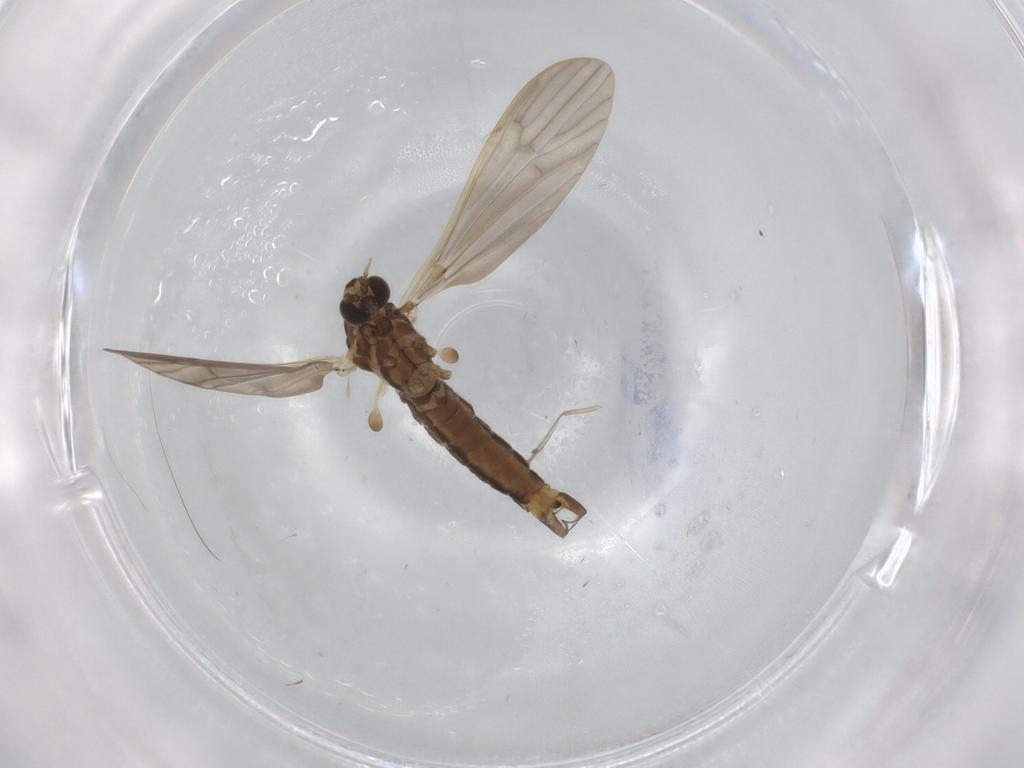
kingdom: Animalia
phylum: Arthropoda
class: Insecta
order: Diptera
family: Limoniidae
